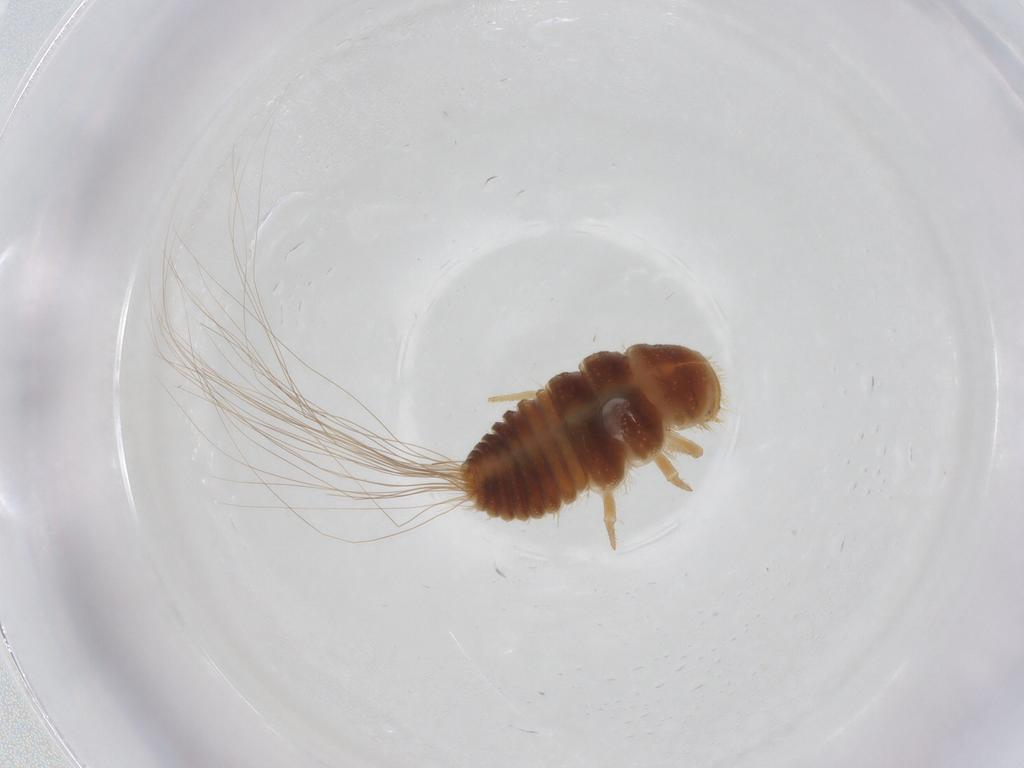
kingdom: Animalia
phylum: Arthropoda
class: Insecta
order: Coleoptera
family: Dermestidae
